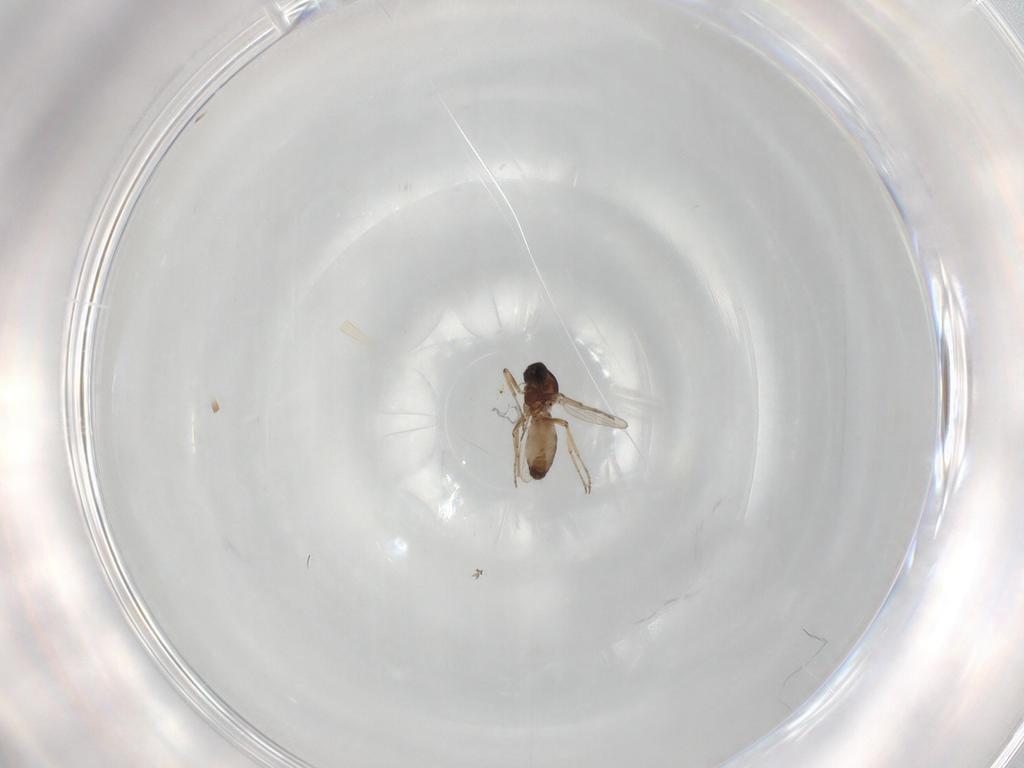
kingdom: Animalia
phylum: Arthropoda
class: Insecta
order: Diptera
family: Ceratopogonidae
